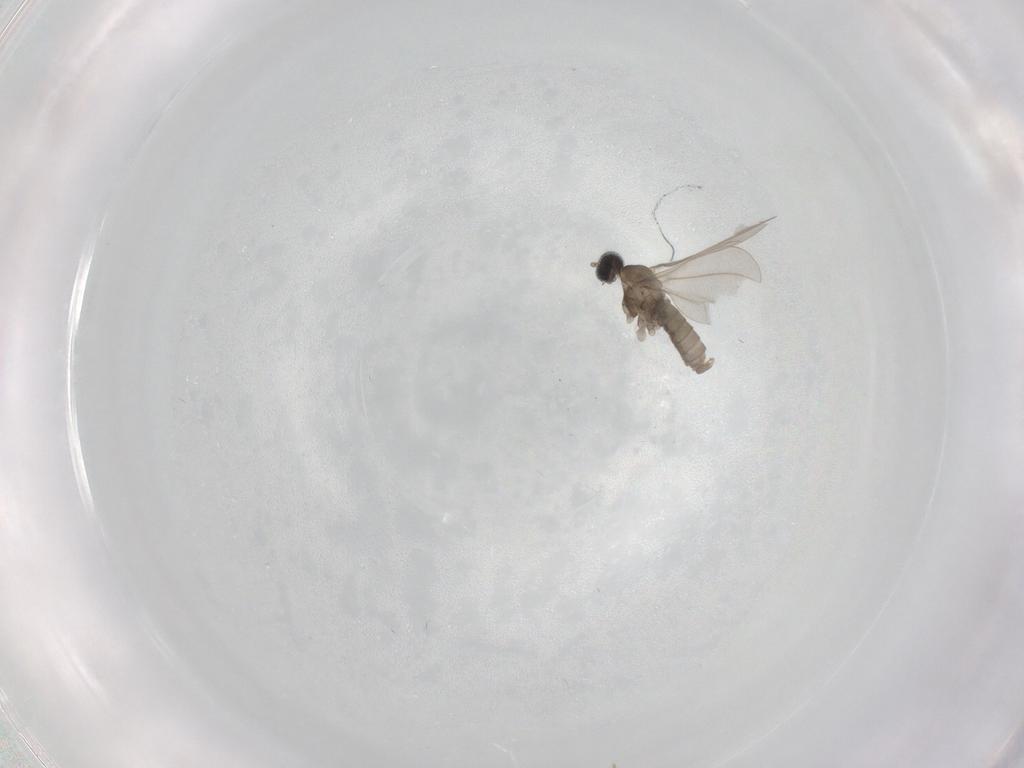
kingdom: Animalia
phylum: Arthropoda
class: Insecta
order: Diptera
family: Cecidomyiidae
